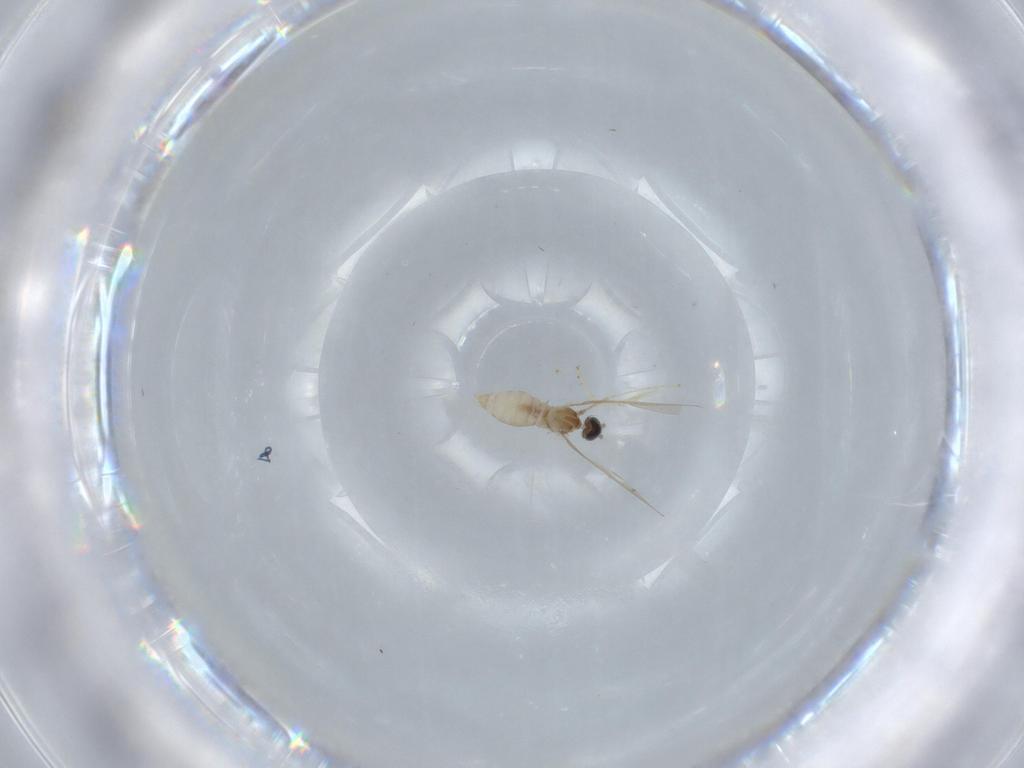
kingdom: Animalia
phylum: Arthropoda
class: Insecta
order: Diptera
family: Cecidomyiidae
